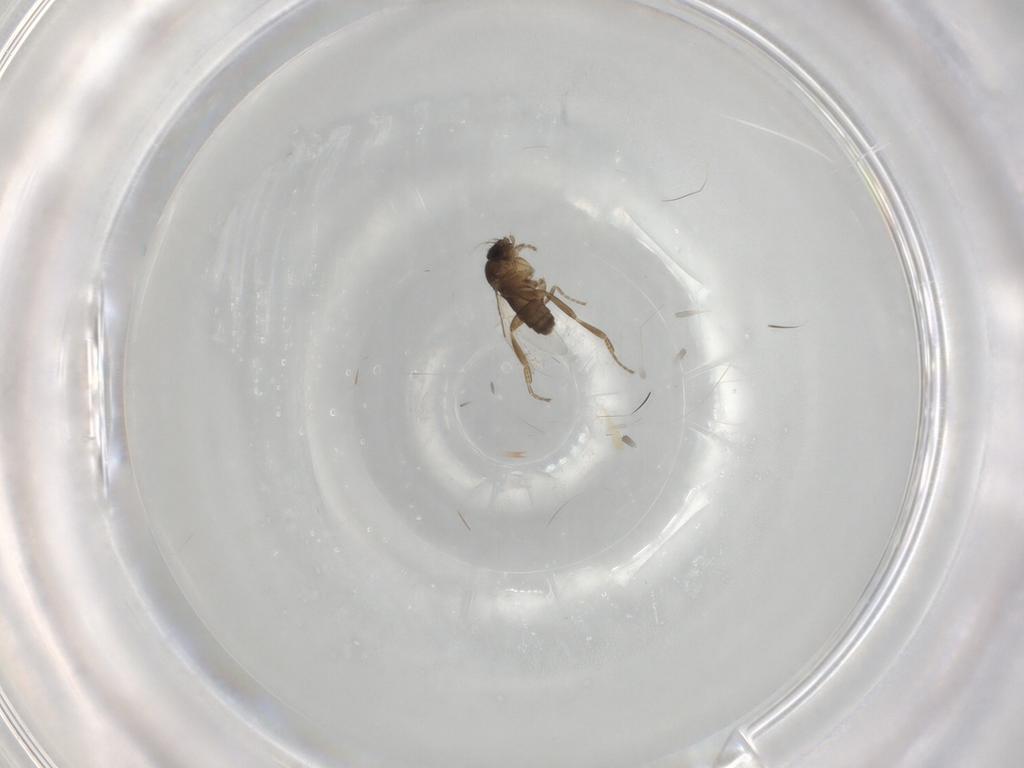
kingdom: Animalia
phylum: Arthropoda
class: Insecta
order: Diptera
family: Phoridae
